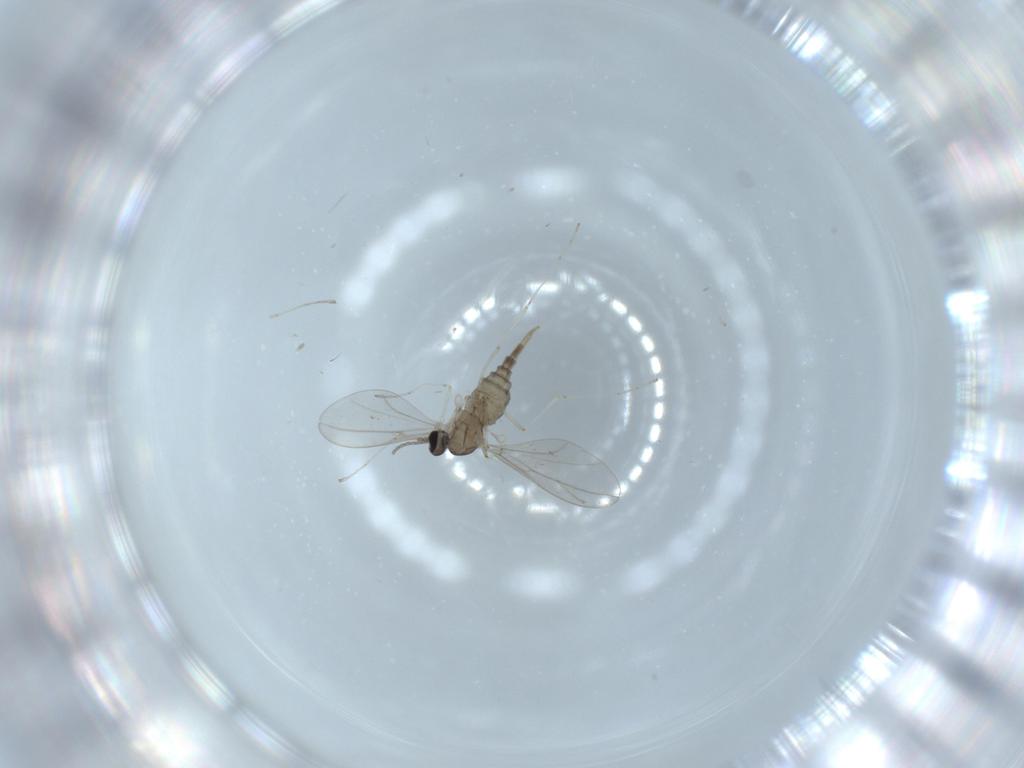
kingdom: Animalia
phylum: Arthropoda
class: Insecta
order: Diptera
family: Cecidomyiidae
